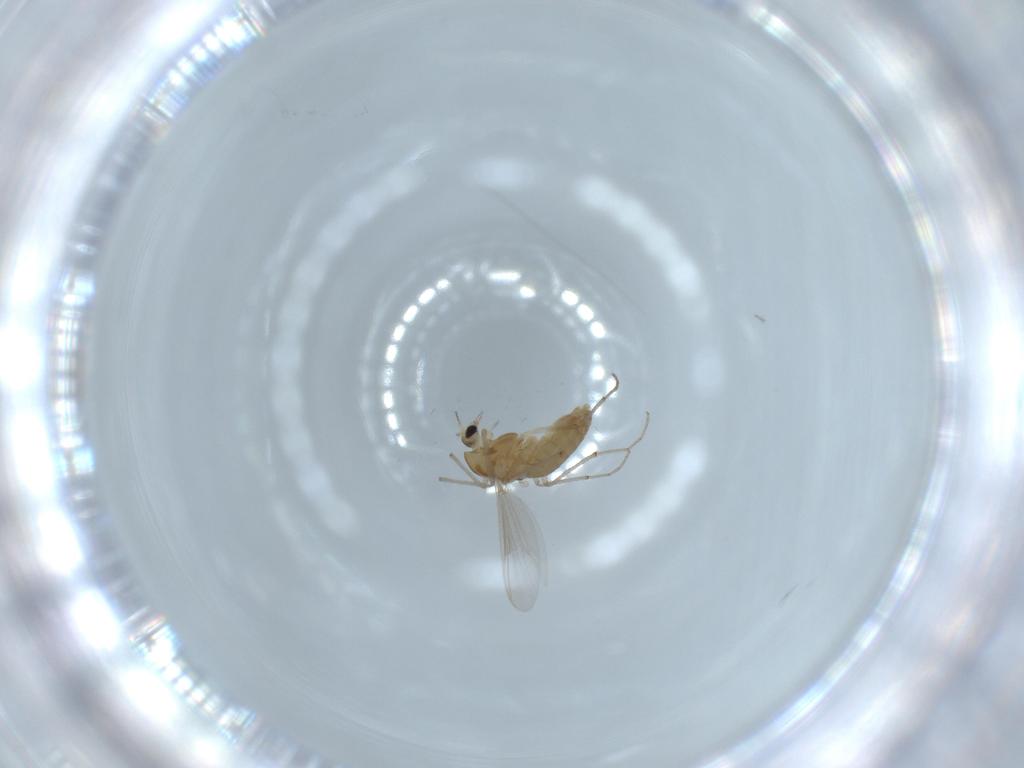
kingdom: Animalia
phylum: Arthropoda
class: Insecta
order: Diptera
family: Chironomidae
